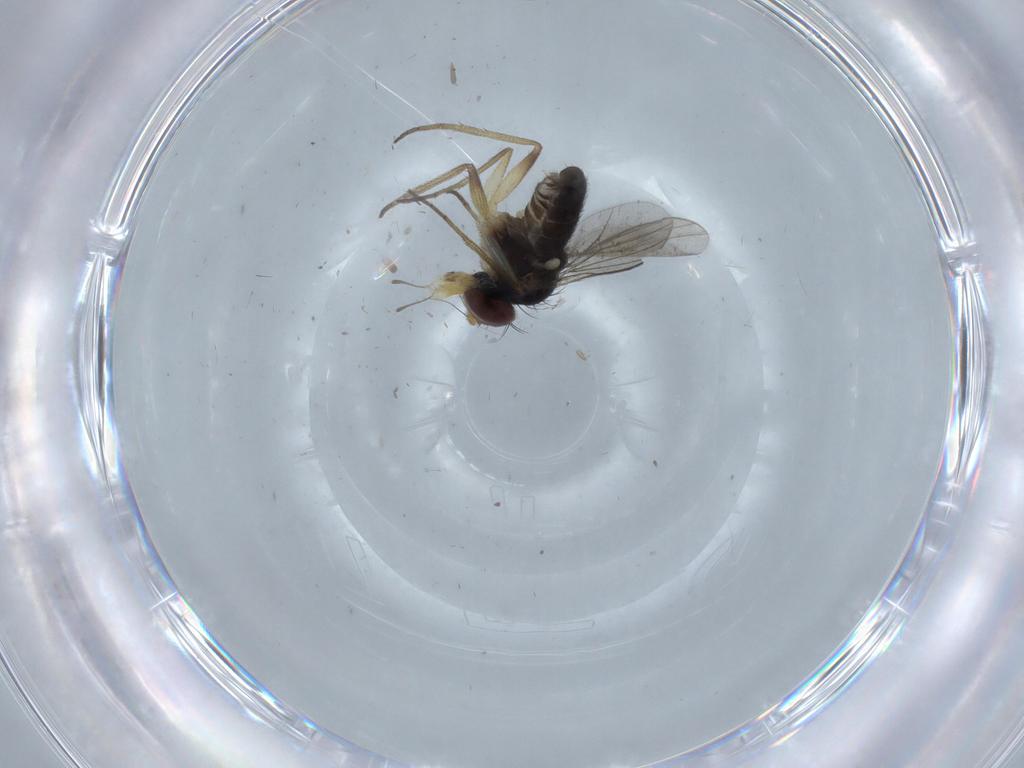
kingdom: Animalia
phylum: Arthropoda
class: Insecta
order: Diptera
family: Dolichopodidae
